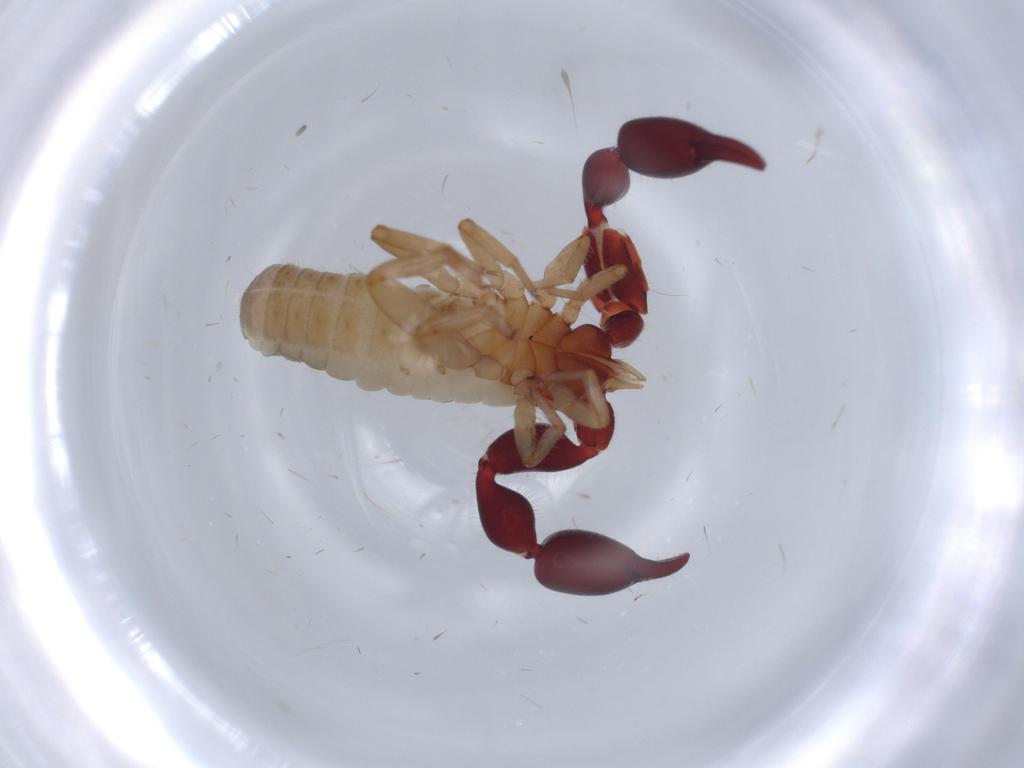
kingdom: Animalia
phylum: Arthropoda
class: Arachnida
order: Pseudoscorpiones
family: Chernetidae
